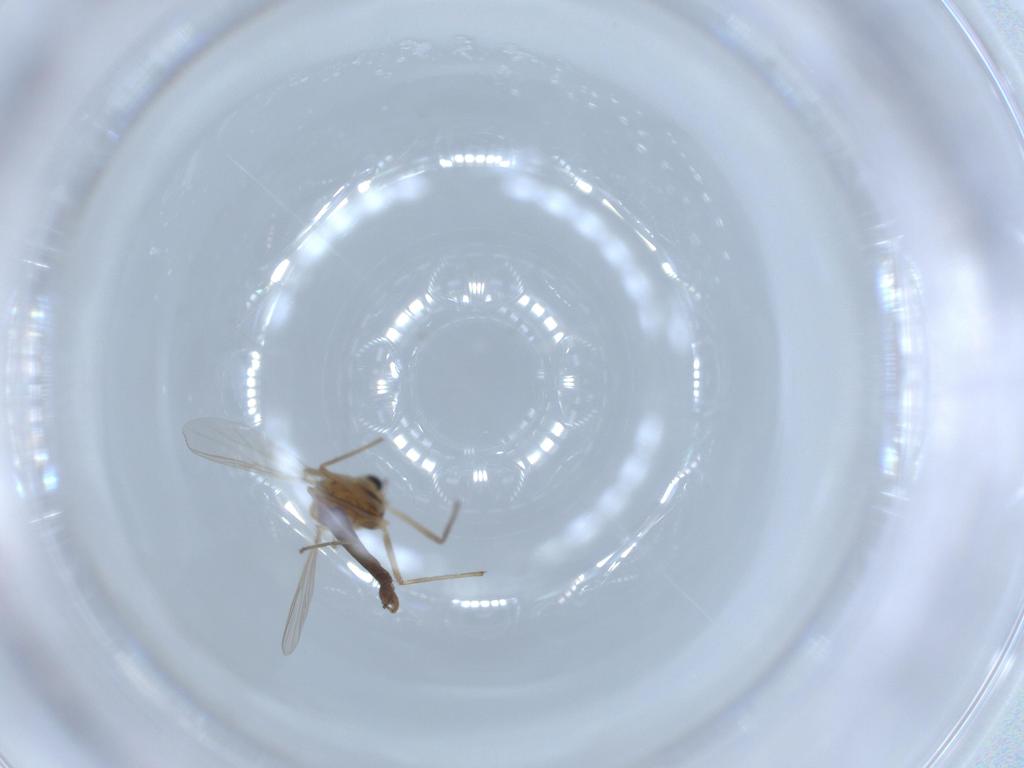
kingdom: Animalia
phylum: Arthropoda
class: Insecta
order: Diptera
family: Chironomidae
